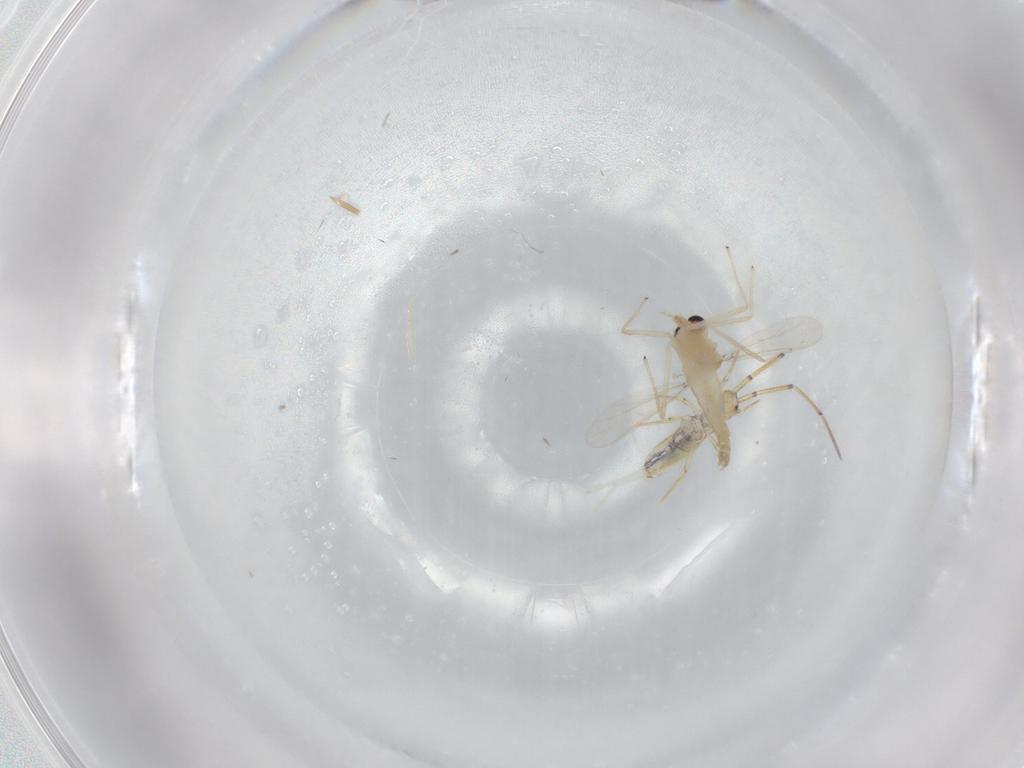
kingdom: Animalia
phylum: Arthropoda
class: Insecta
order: Diptera
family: Chironomidae
